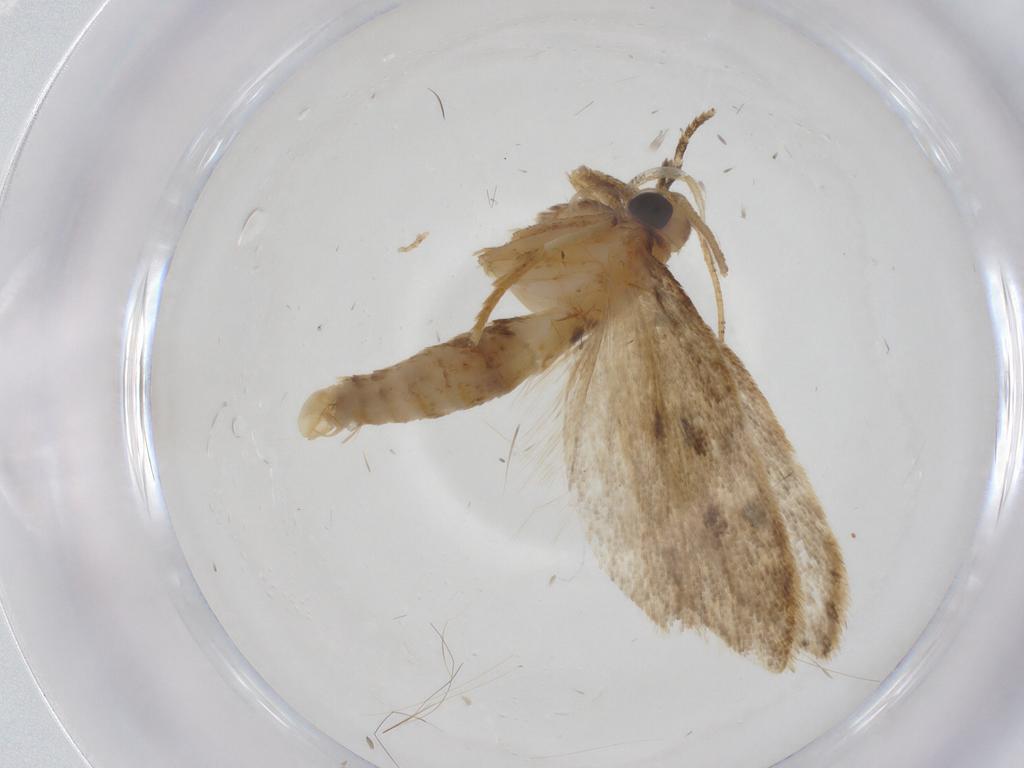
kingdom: Animalia
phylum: Arthropoda
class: Insecta
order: Lepidoptera
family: Oecophoridae
